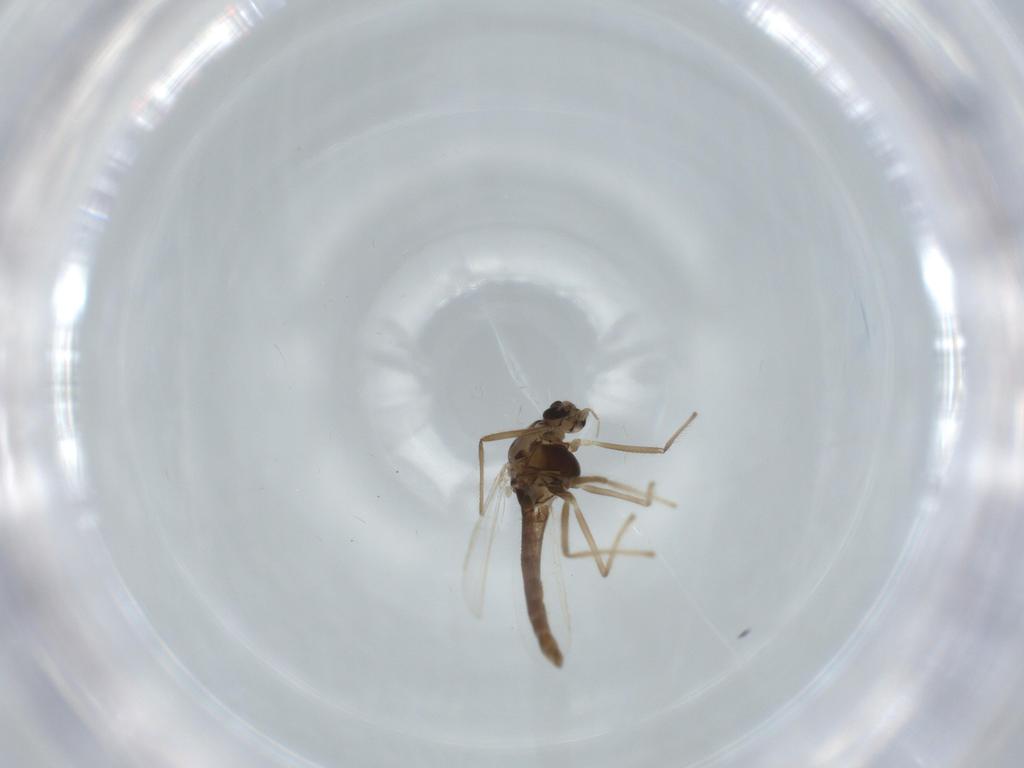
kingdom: Animalia
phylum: Arthropoda
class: Insecta
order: Diptera
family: Chironomidae
